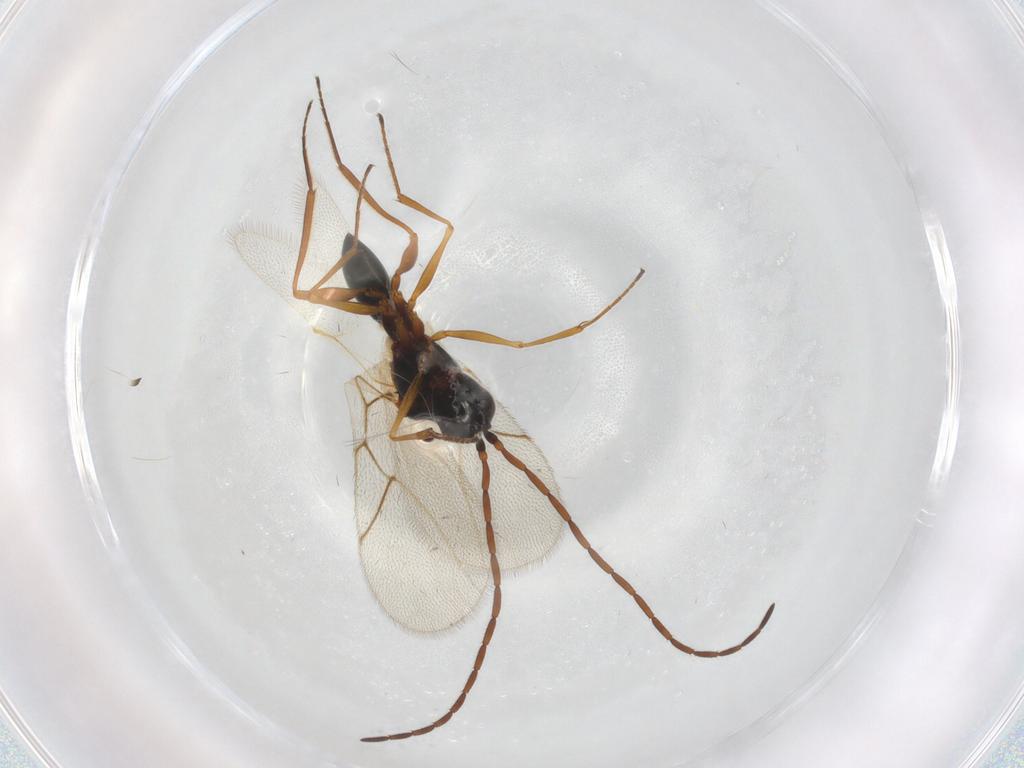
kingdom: Animalia
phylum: Arthropoda
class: Insecta
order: Hymenoptera
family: Figitidae
